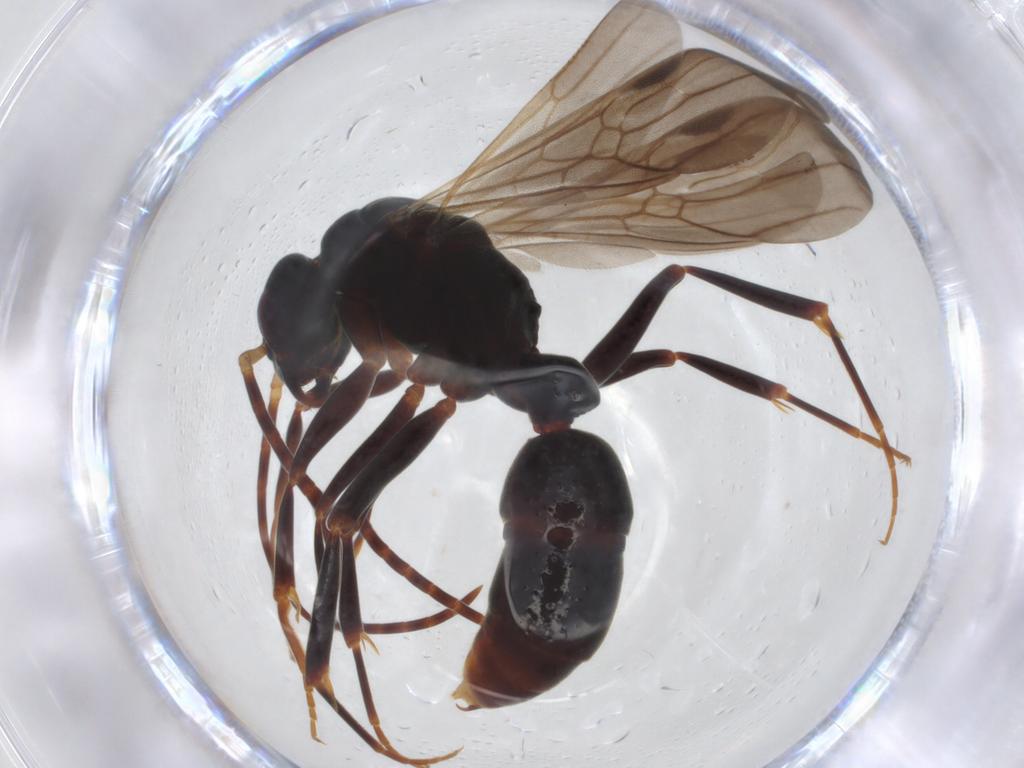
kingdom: Animalia
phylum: Arthropoda
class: Insecta
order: Hymenoptera
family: Formicidae
